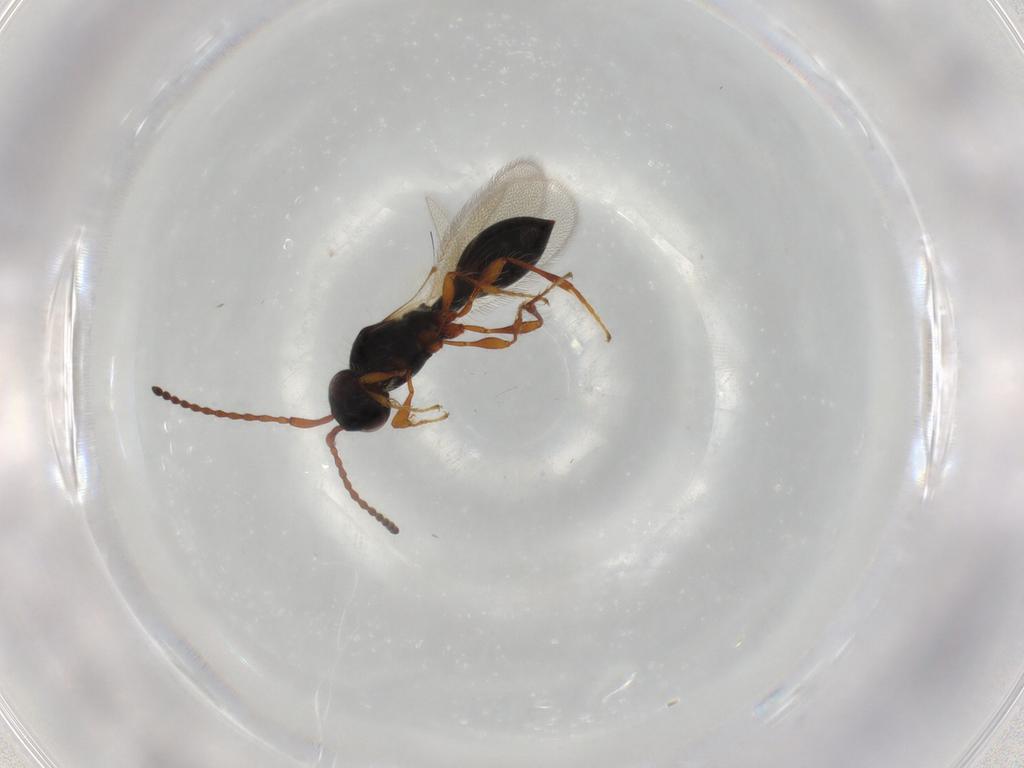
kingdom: Animalia
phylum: Arthropoda
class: Insecta
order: Hymenoptera
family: Diapriidae
